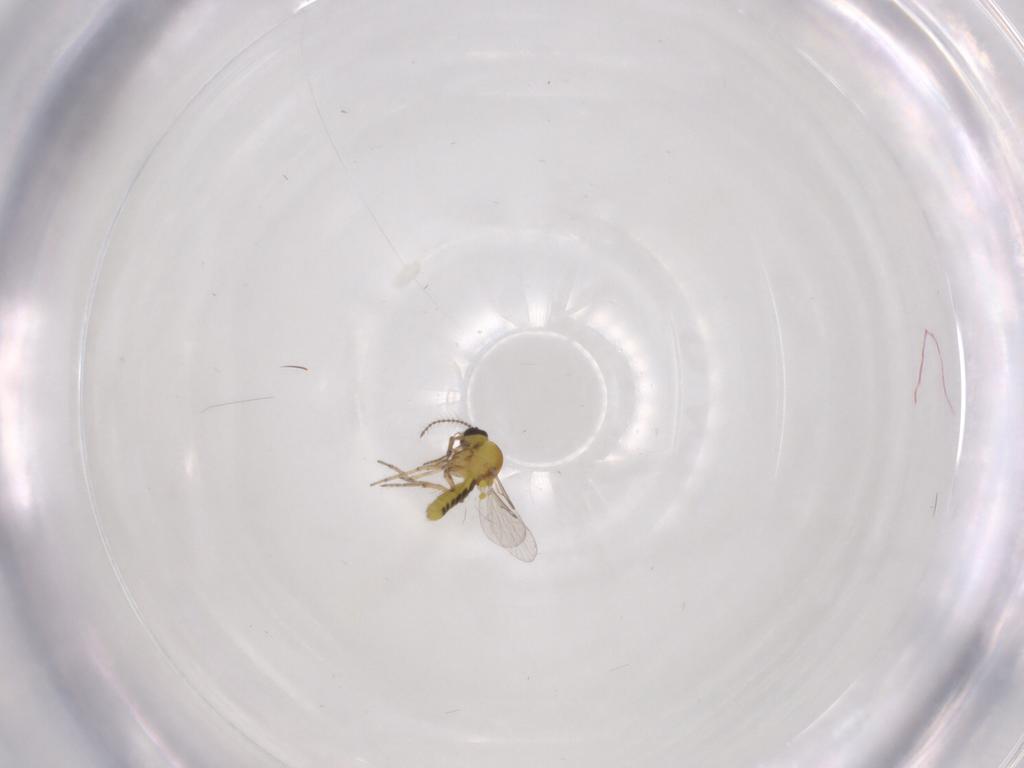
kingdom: Animalia
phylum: Arthropoda
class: Insecta
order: Diptera
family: Sciaridae
